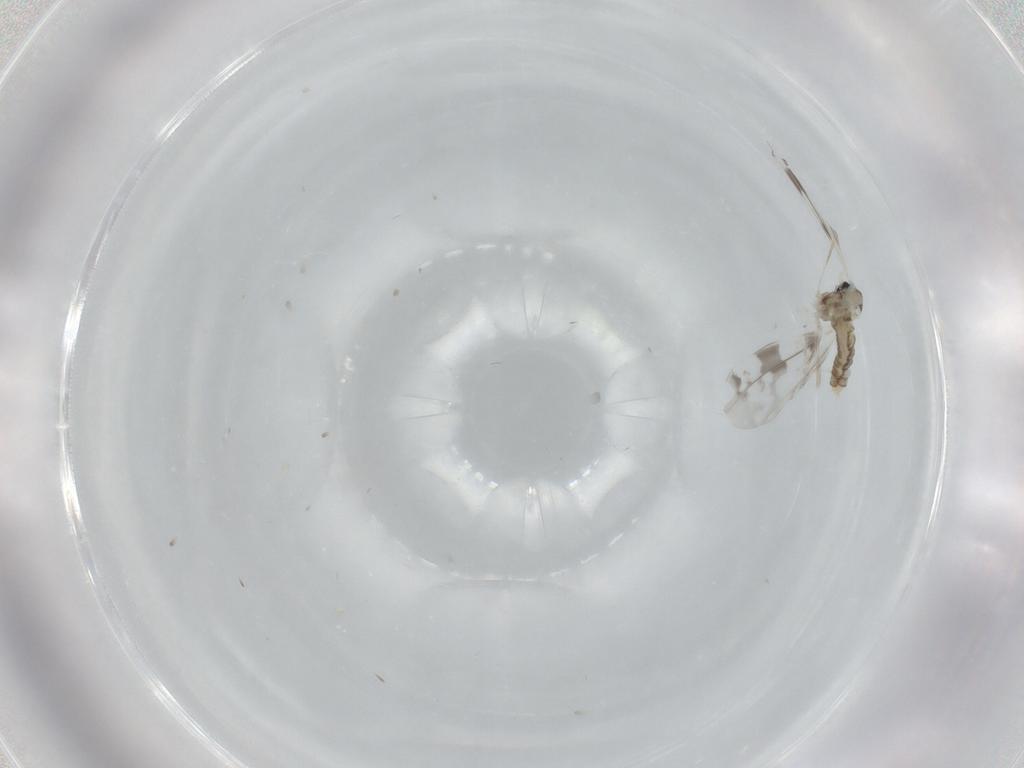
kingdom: Animalia
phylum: Arthropoda
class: Insecta
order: Diptera
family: Cecidomyiidae
